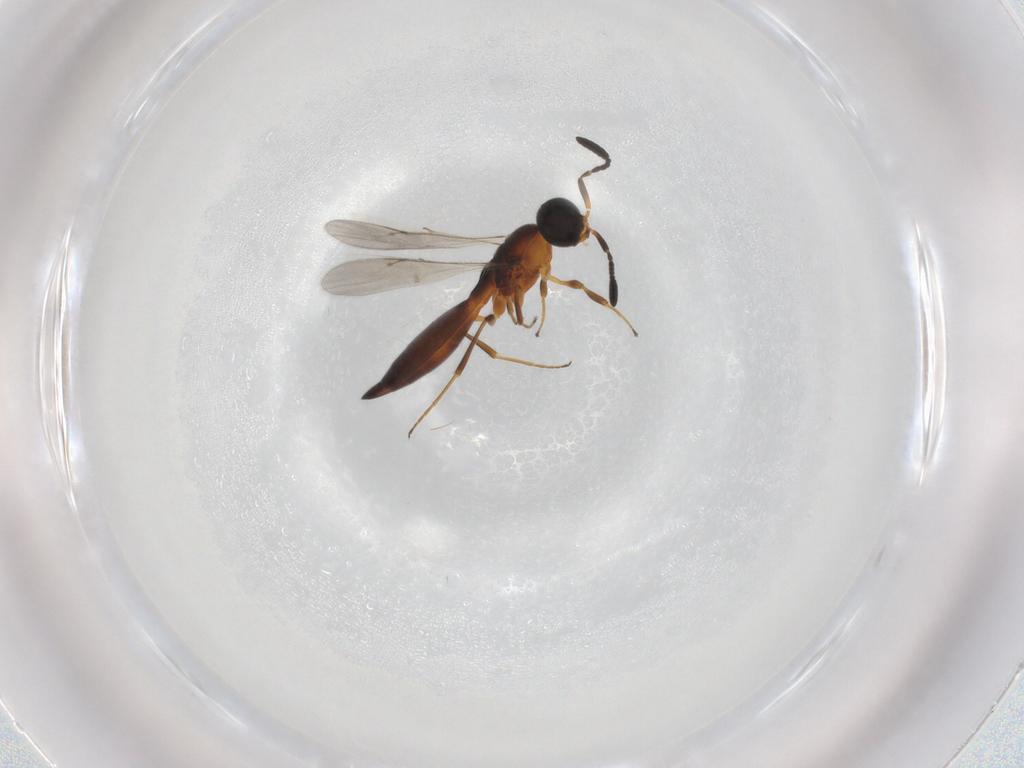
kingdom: Animalia
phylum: Arthropoda
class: Insecta
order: Hymenoptera
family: Scelionidae
